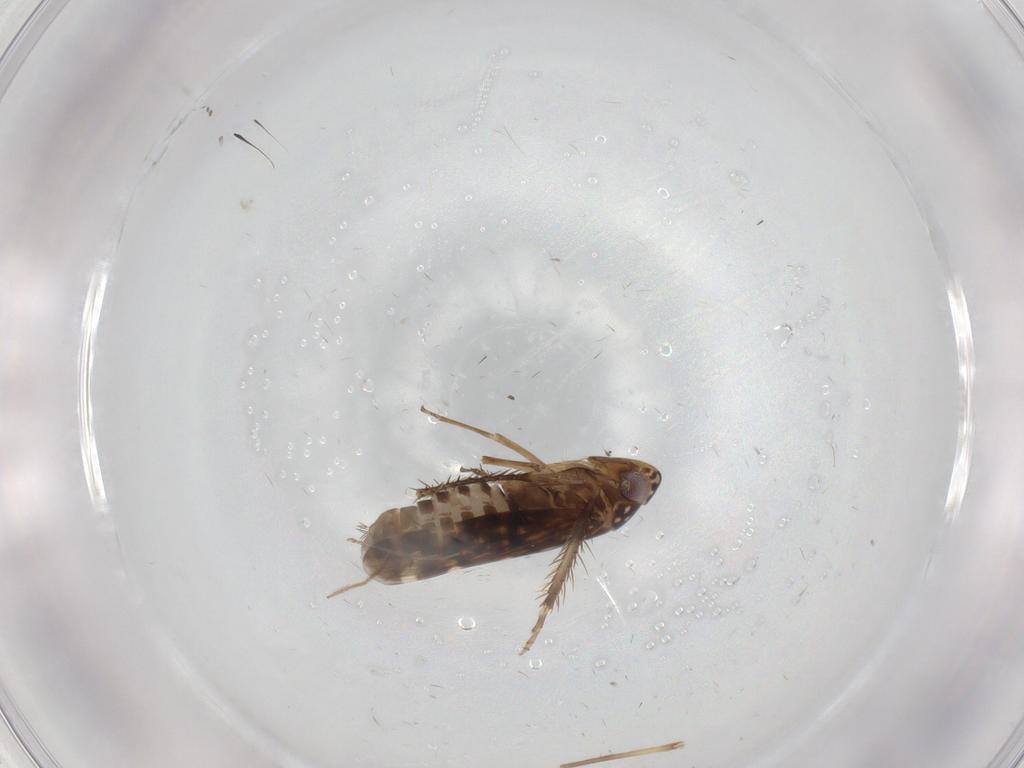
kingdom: Animalia
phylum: Arthropoda
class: Insecta
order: Hemiptera
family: Cicadellidae
